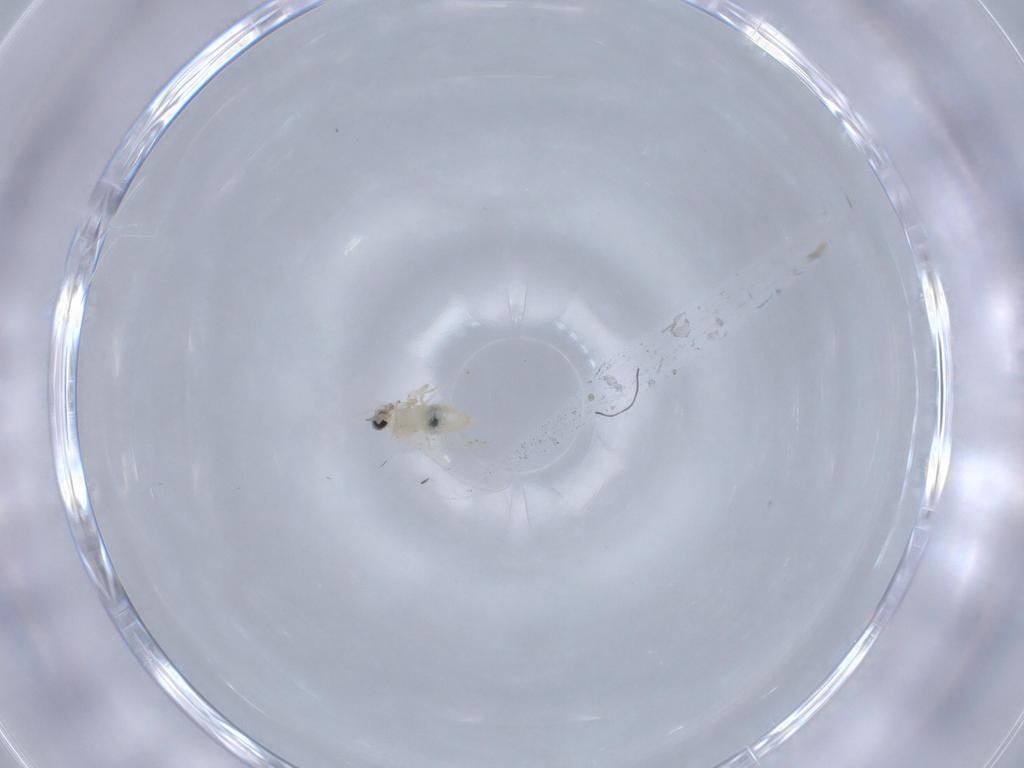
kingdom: Animalia
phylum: Arthropoda
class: Insecta
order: Diptera
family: Cecidomyiidae
